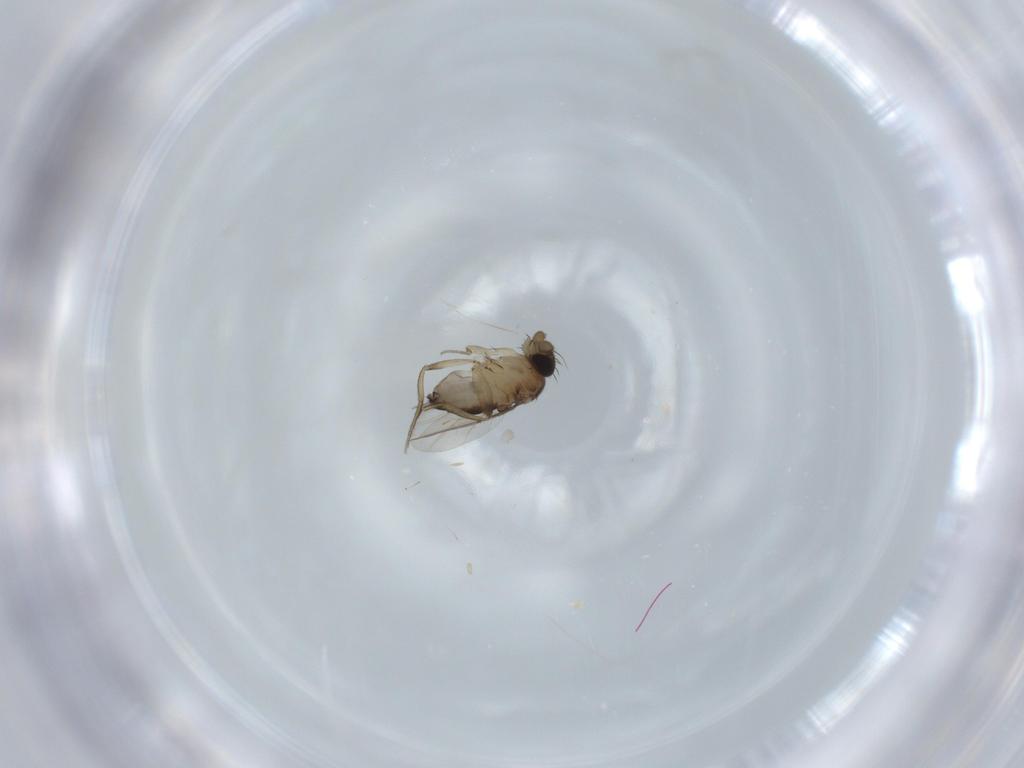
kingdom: Animalia
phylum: Arthropoda
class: Insecta
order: Diptera
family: Phoridae
